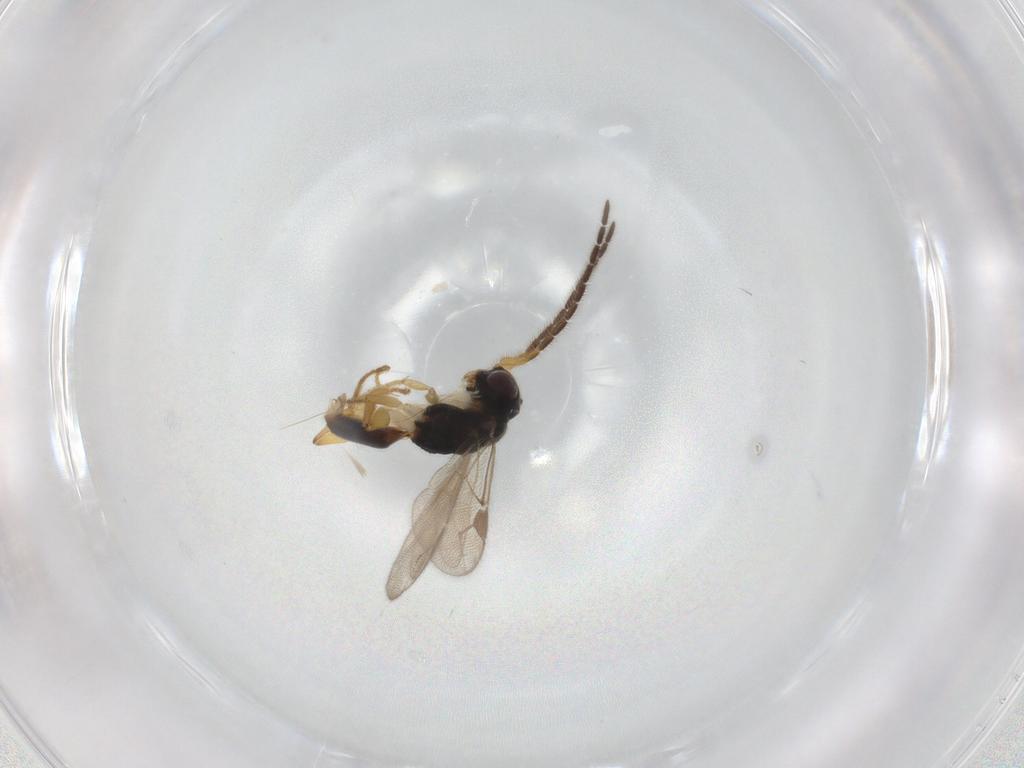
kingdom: Animalia
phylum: Arthropoda
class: Insecta
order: Hymenoptera
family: Dryinidae
